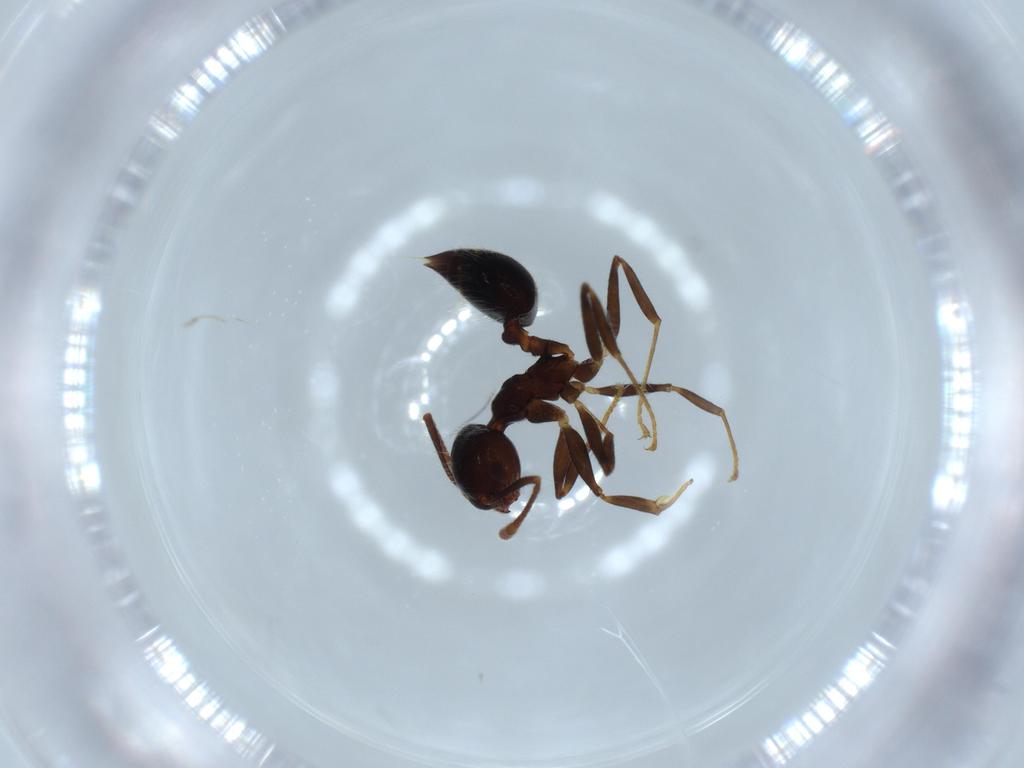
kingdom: Animalia
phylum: Arthropoda
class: Insecta
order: Hymenoptera
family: Formicidae
